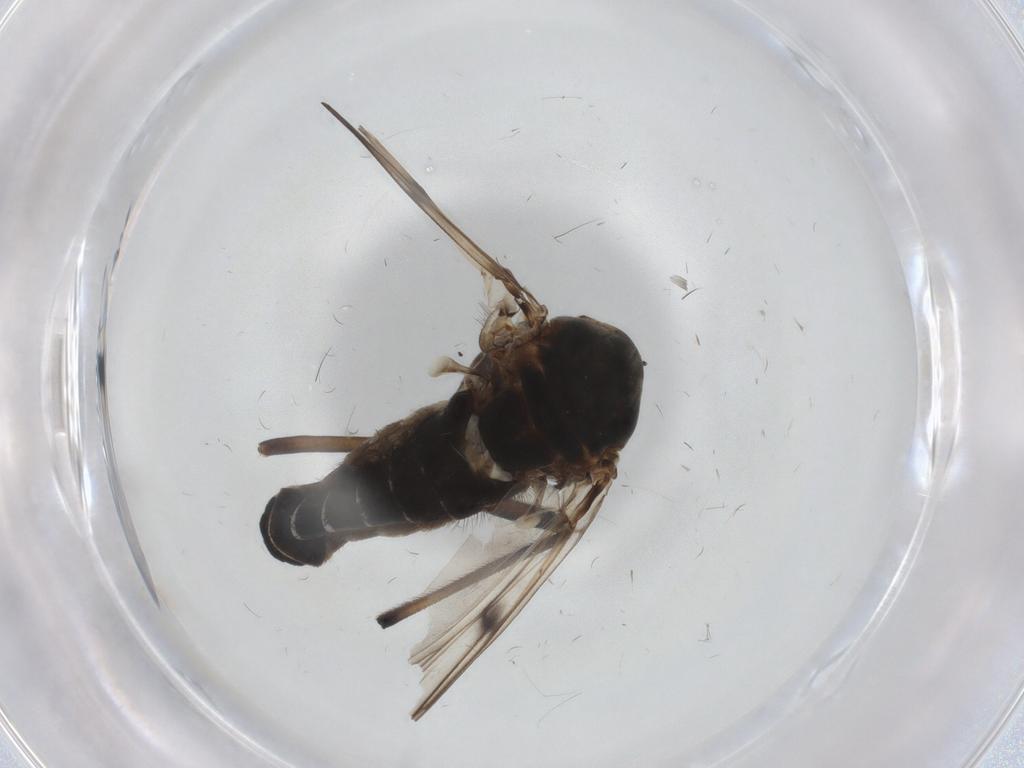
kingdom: Animalia
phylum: Arthropoda
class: Insecta
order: Diptera
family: Chironomidae
